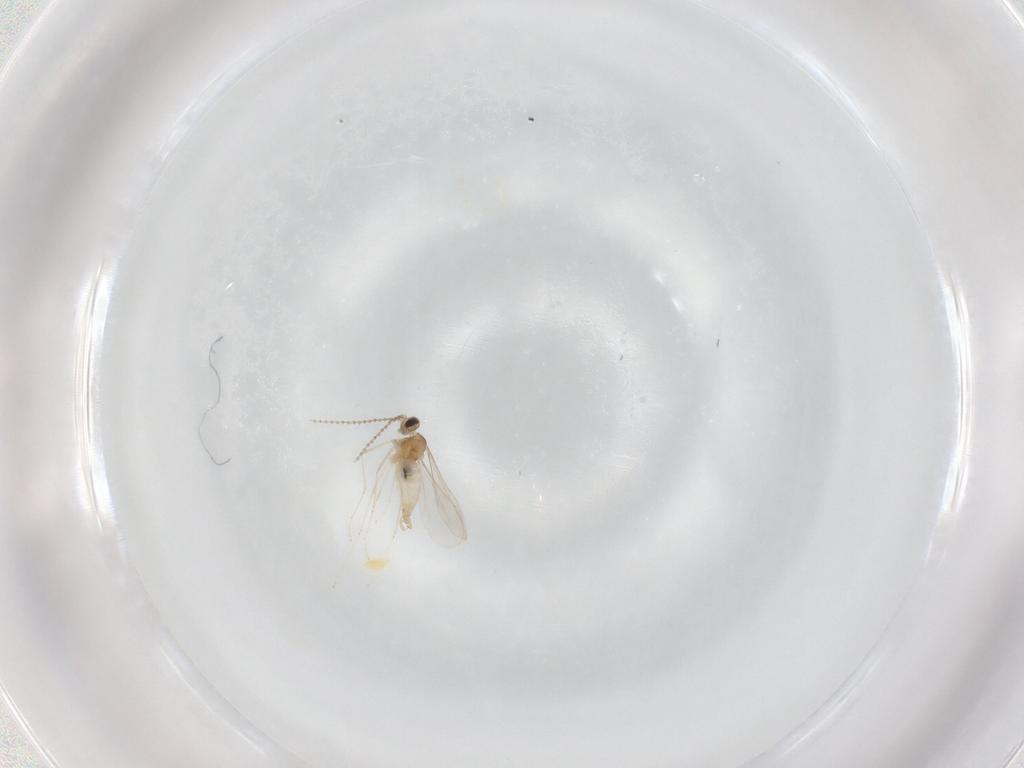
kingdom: Animalia
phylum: Arthropoda
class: Insecta
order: Diptera
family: Cecidomyiidae
